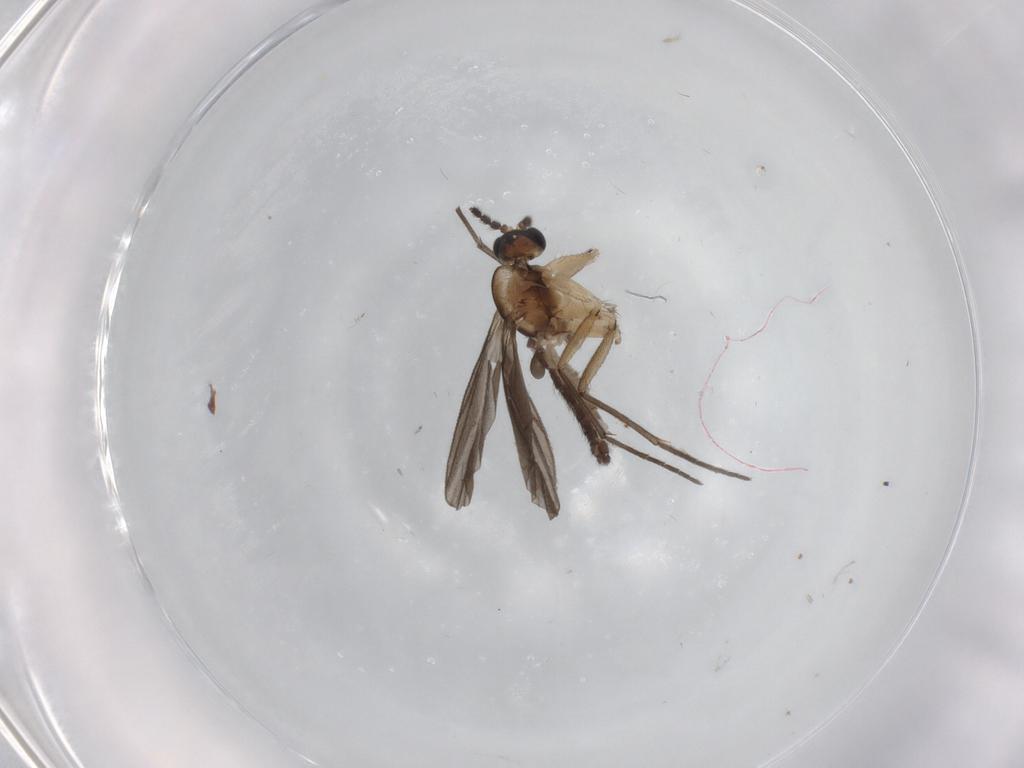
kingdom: Animalia
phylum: Arthropoda
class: Insecta
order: Diptera
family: Sciaridae
